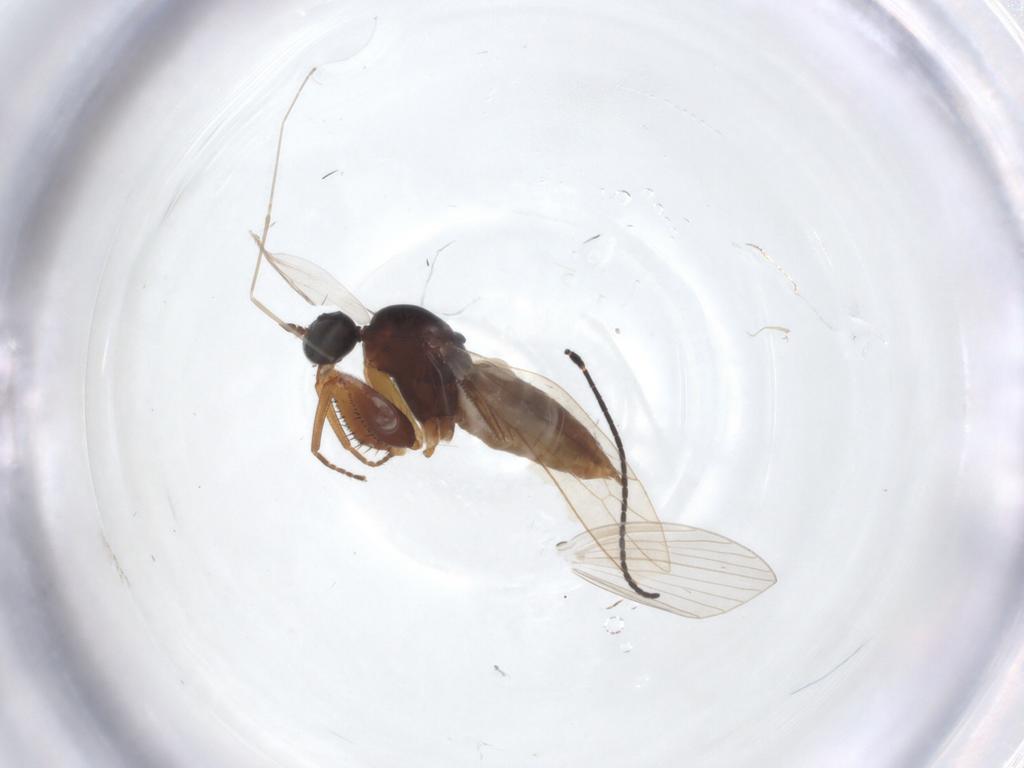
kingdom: Animalia
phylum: Arthropoda
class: Insecta
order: Diptera
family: Empididae
